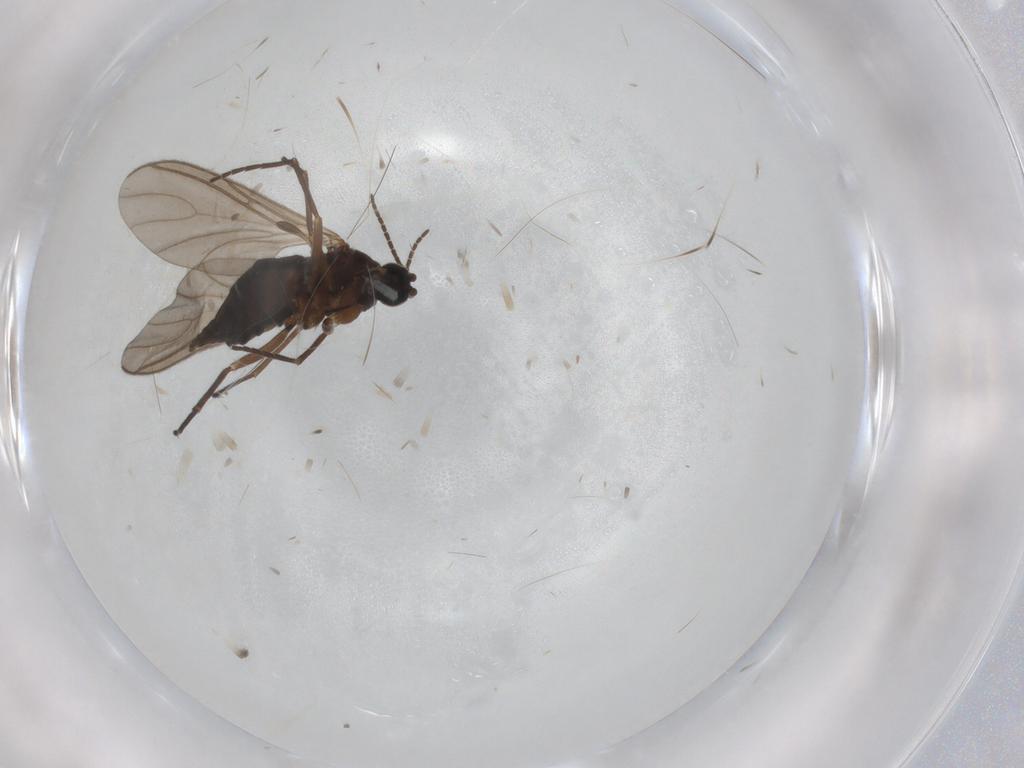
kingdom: Animalia
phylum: Arthropoda
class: Insecta
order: Diptera
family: Sciaridae
